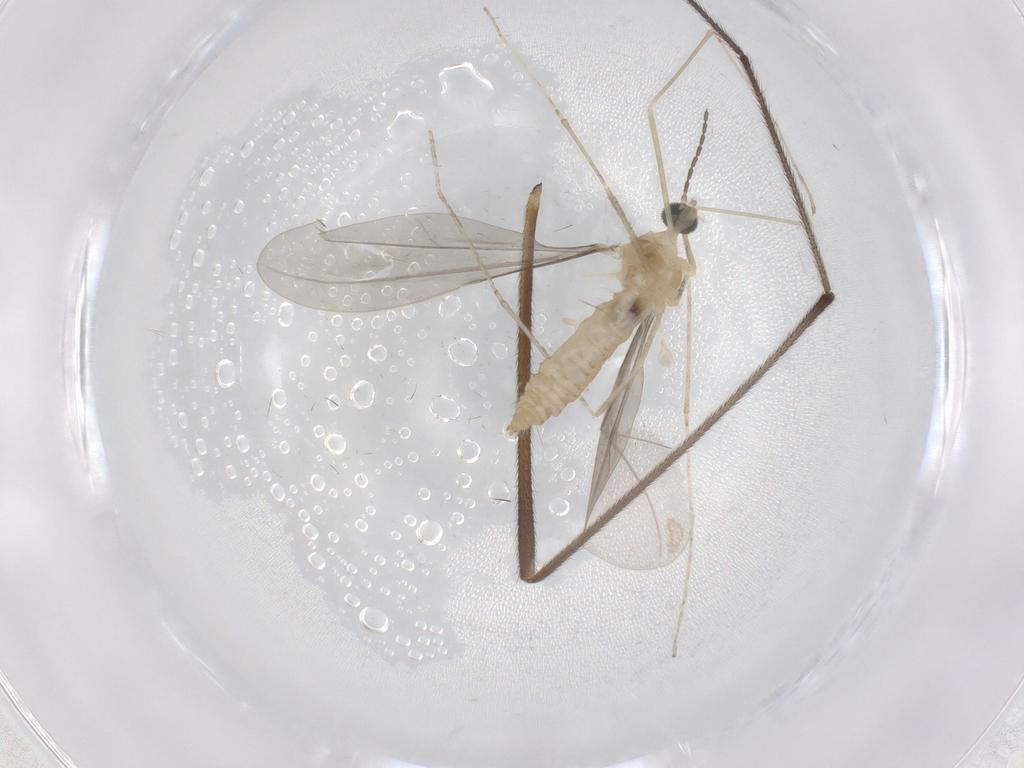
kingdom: Animalia
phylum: Arthropoda
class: Insecta
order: Diptera
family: Cecidomyiidae
